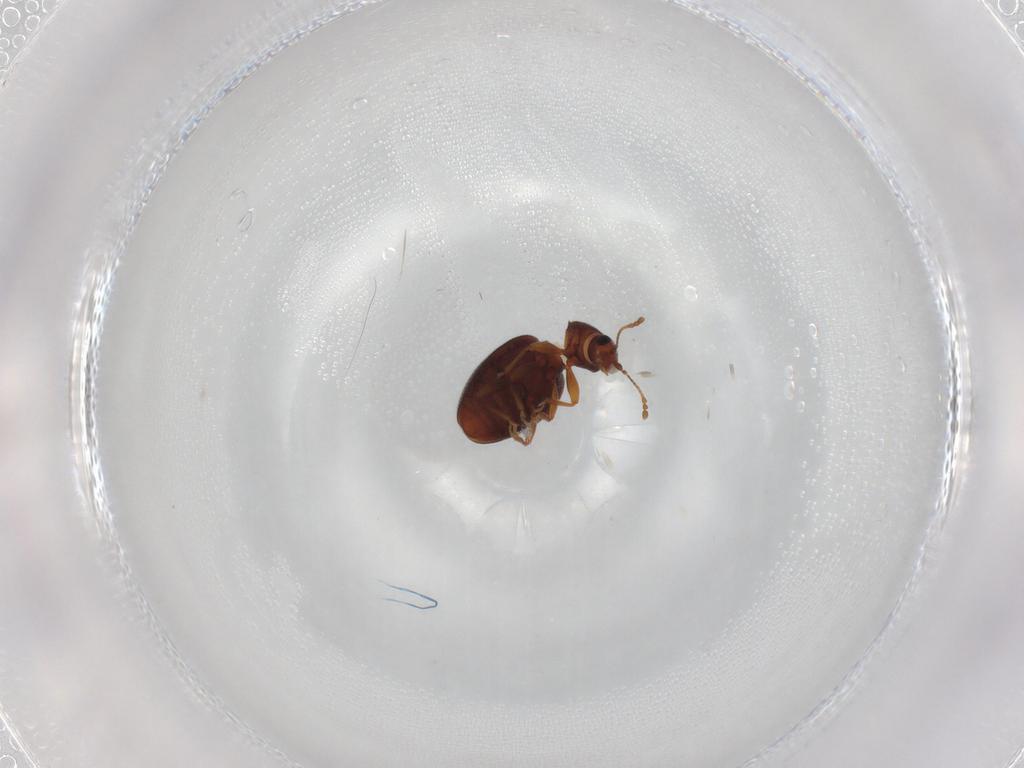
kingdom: Animalia
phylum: Arthropoda
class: Insecta
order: Coleoptera
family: Latridiidae
